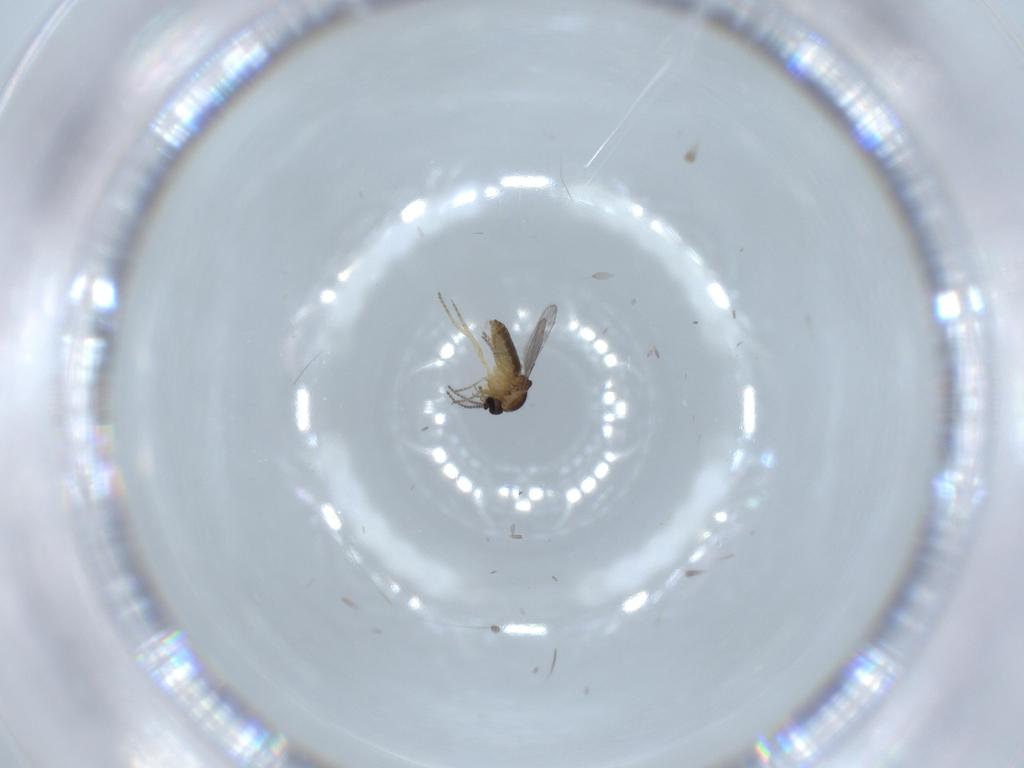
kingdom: Animalia
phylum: Arthropoda
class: Insecta
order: Diptera
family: Ceratopogonidae
